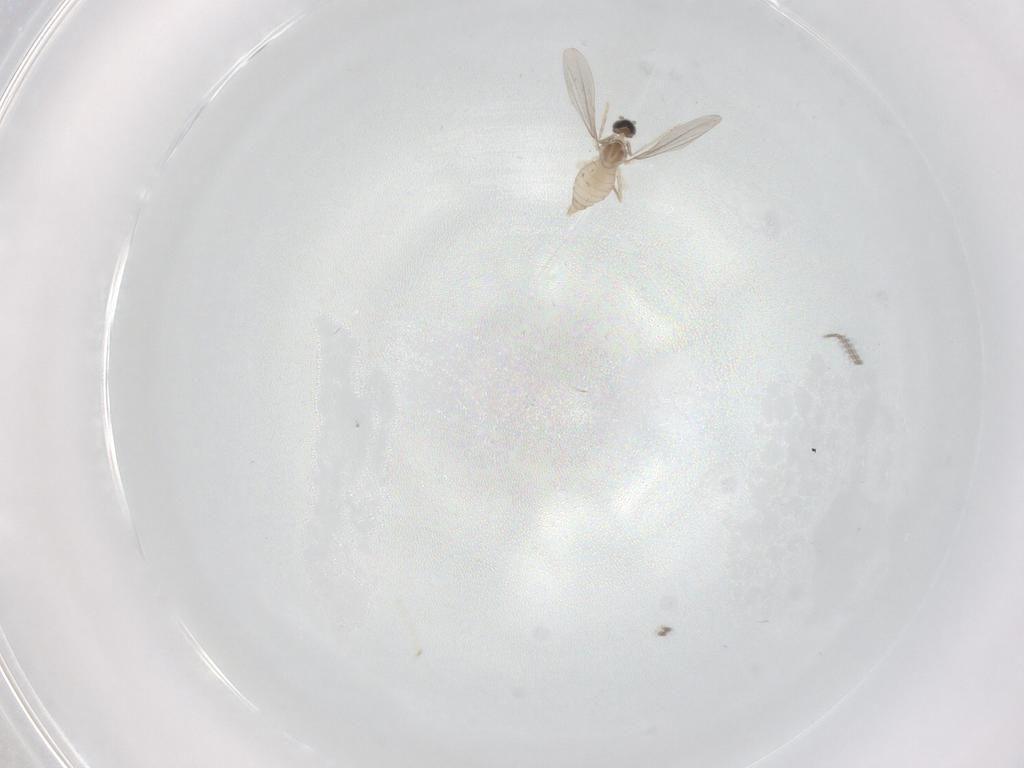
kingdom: Animalia
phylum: Arthropoda
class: Insecta
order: Diptera
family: Cecidomyiidae
